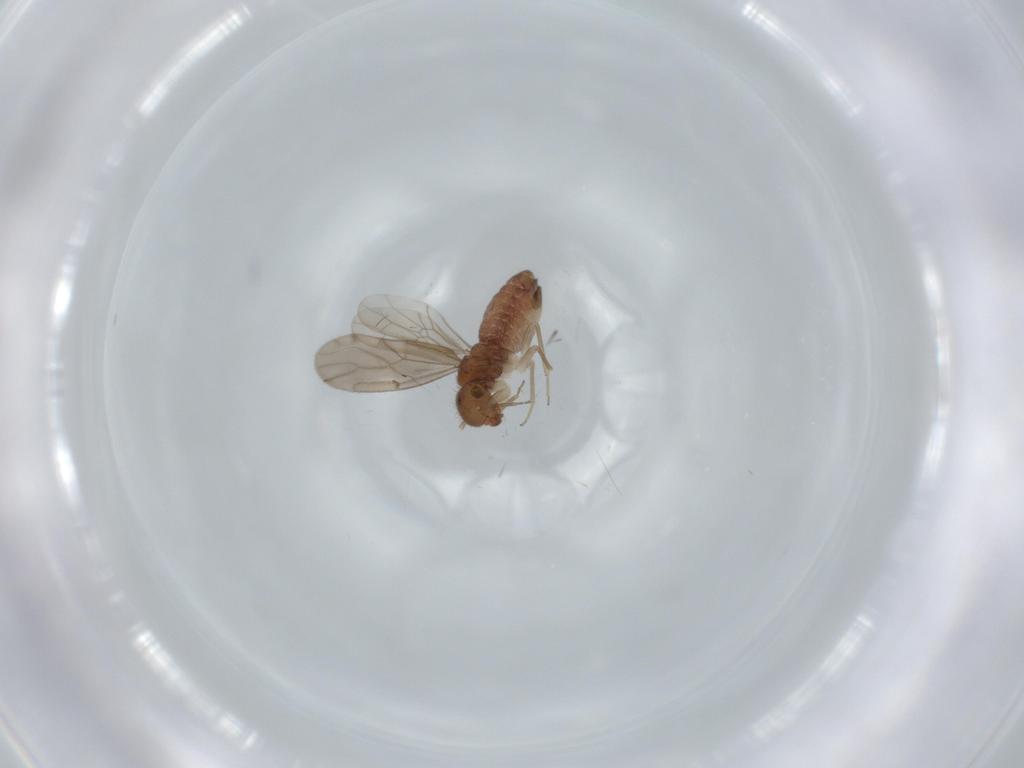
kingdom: Animalia
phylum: Arthropoda
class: Insecta
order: Psocodea
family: Ectopsocidae
